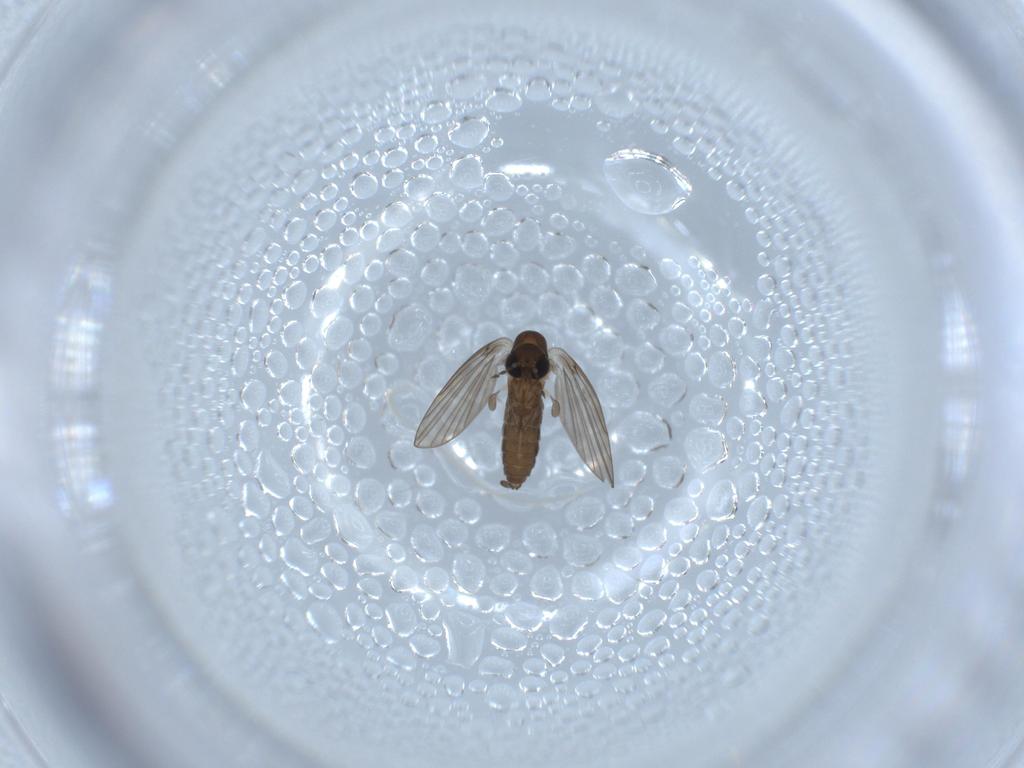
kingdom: Animalia
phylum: Arthropoda
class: Insecta
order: Diptera
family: Psychodidae
